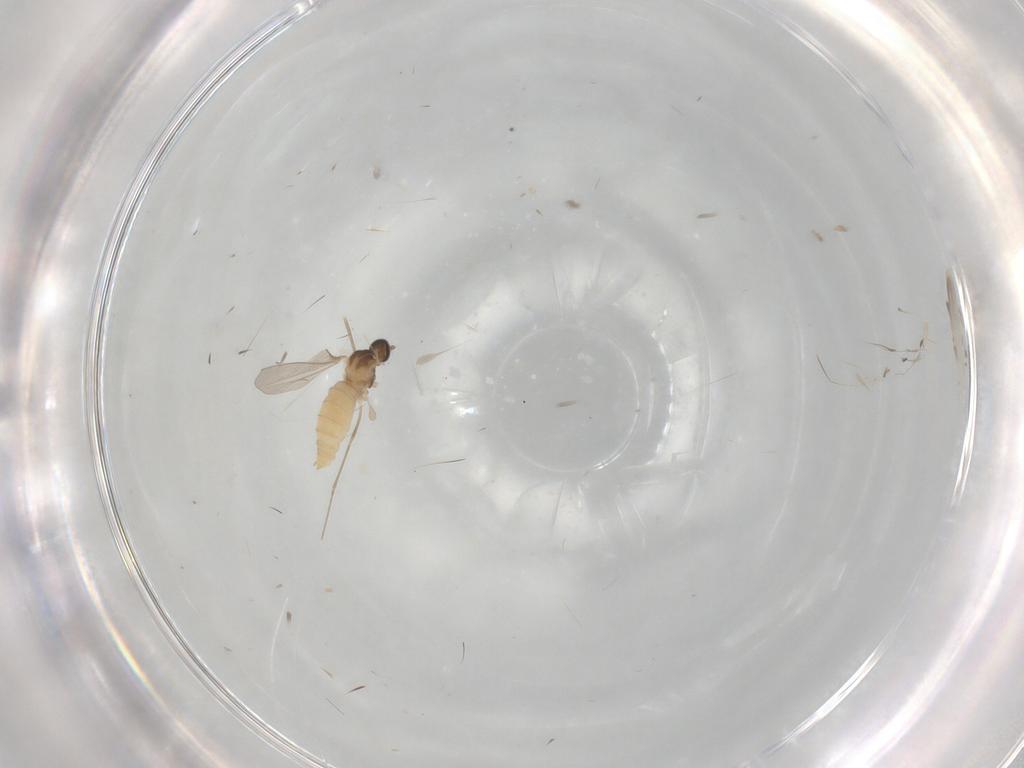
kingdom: Animalia
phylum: Arthropoda
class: Insecta
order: Diptera
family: Cecidomyiidae
